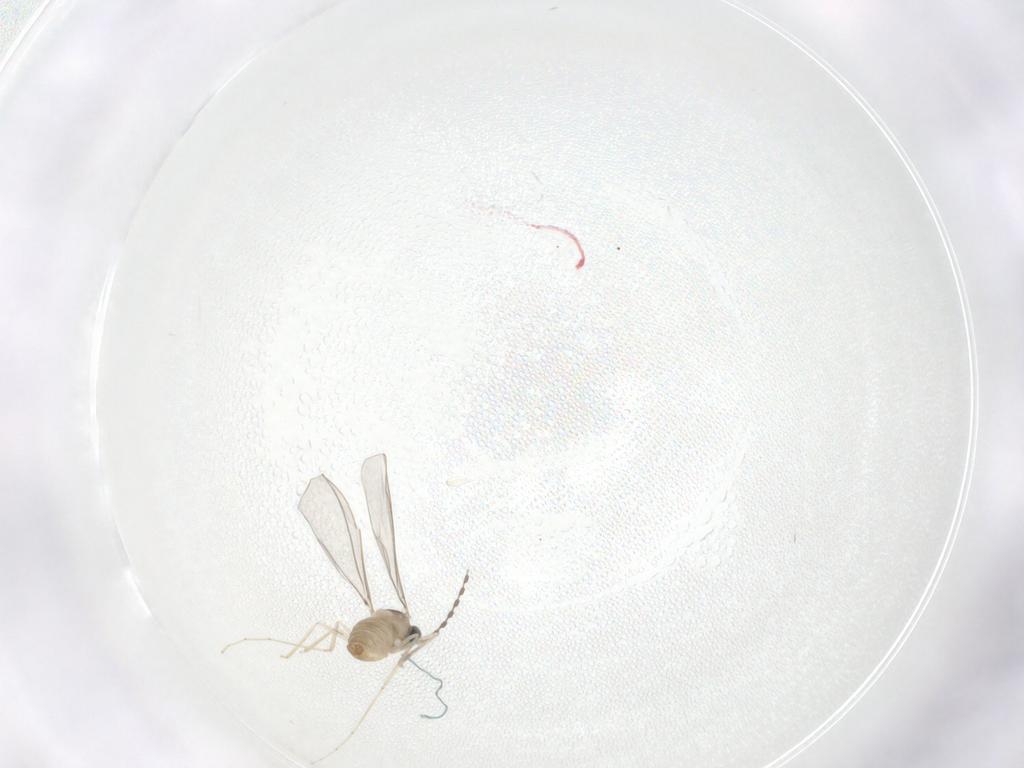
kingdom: Animalia
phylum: Arthropoda
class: Insecta
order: Diptera
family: Cecidomyiidae
